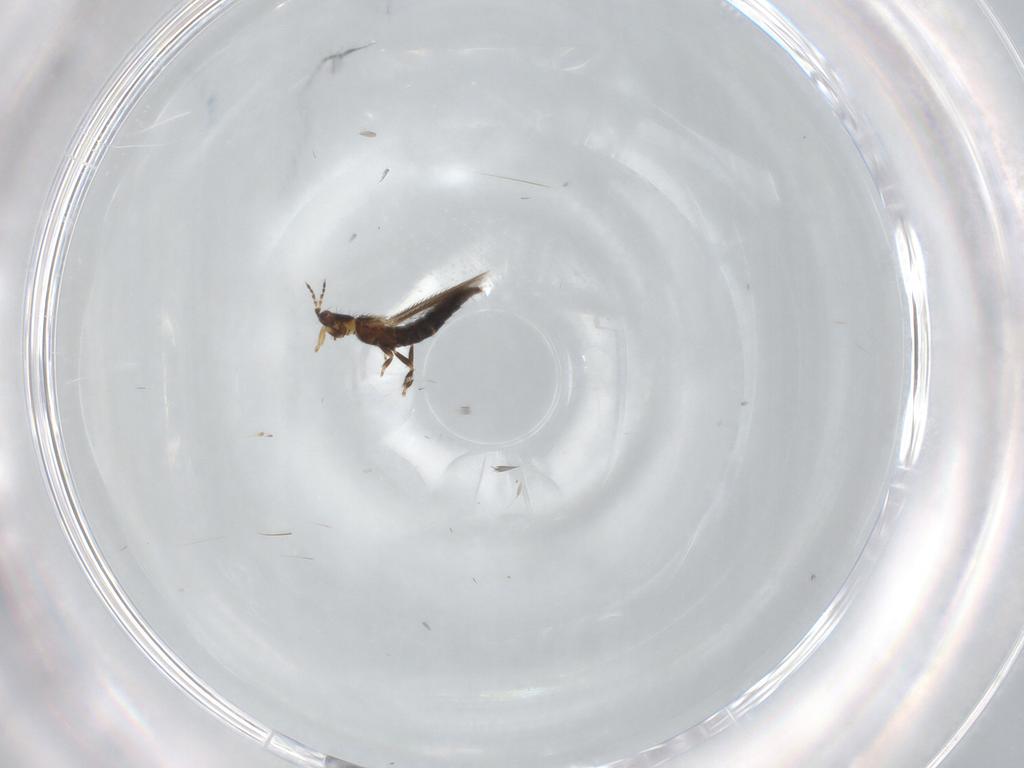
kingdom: Animalia
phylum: Arthropoda
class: Insecta
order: Thysanoptera
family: Thripidae
